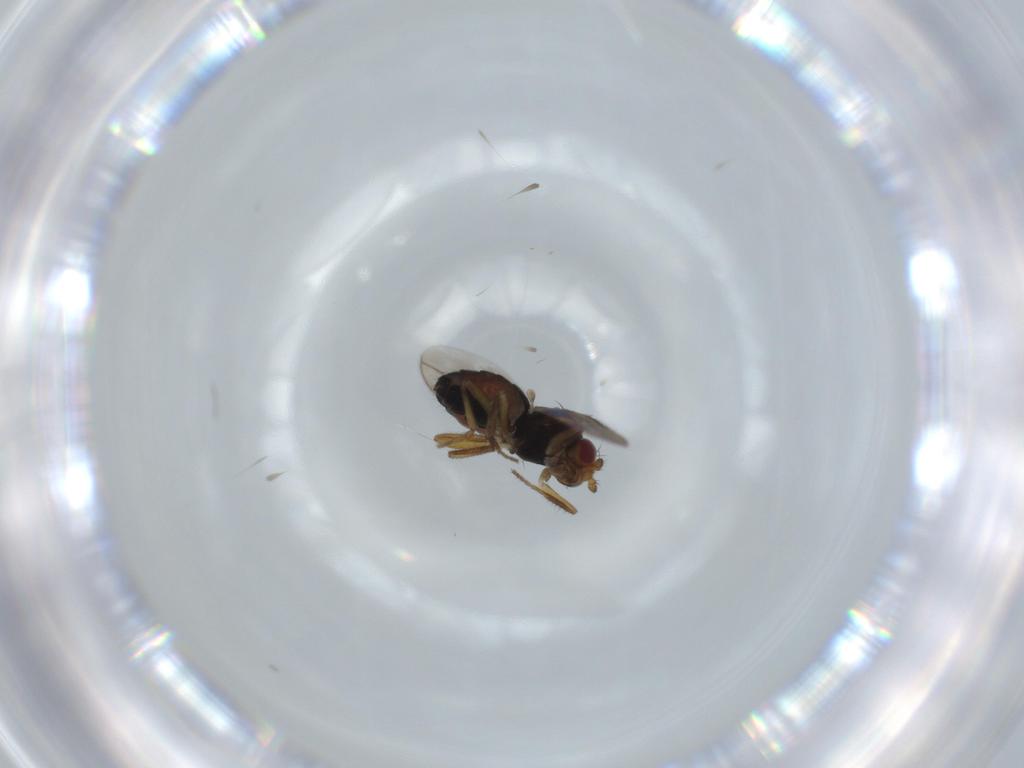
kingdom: Animalia
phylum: Arthropoda
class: Insecta
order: Diptera
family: Sphaeroceridae
